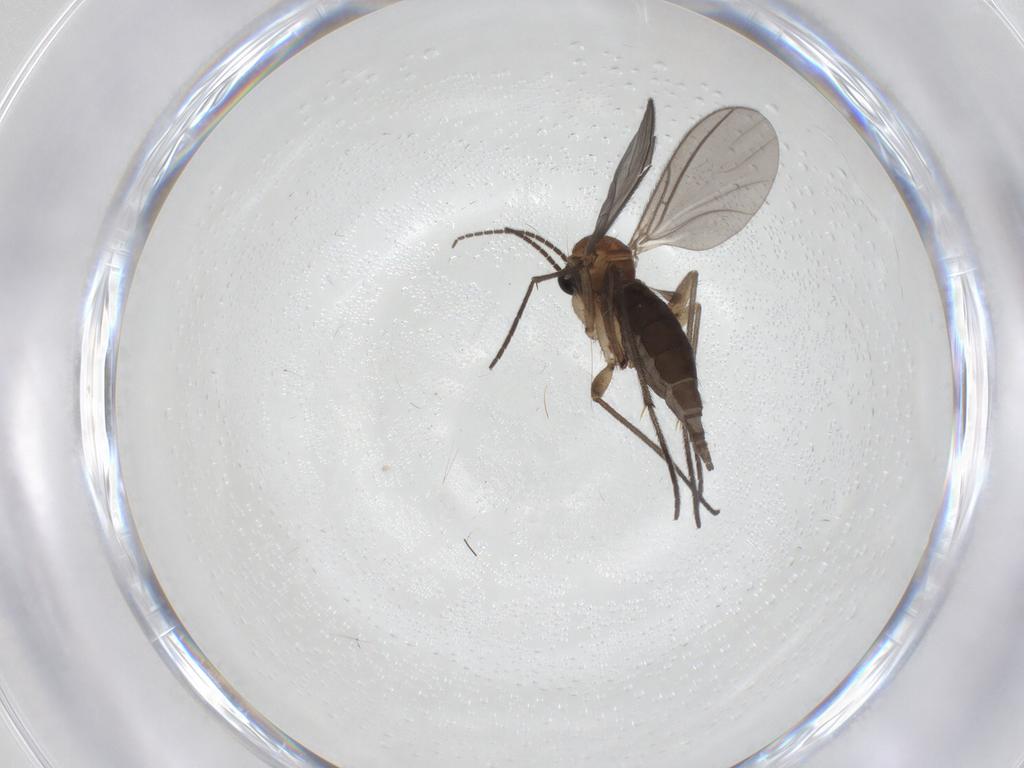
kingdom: Animalia
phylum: Arthropoda
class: Insecta
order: Diptera
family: Sciaridae
